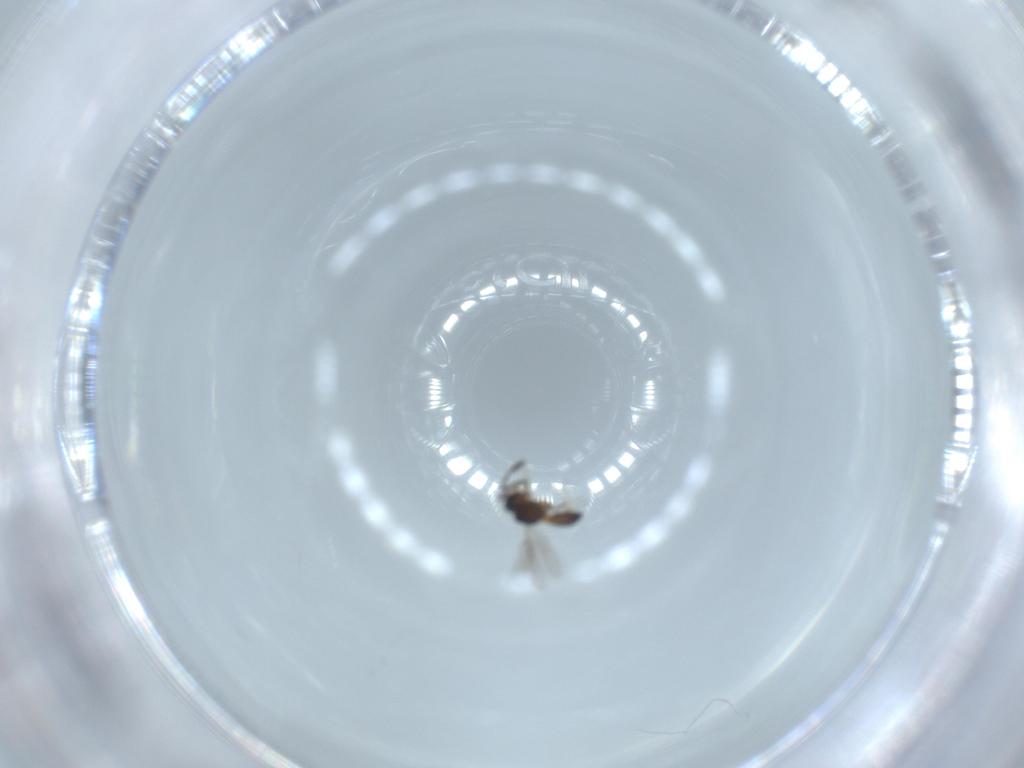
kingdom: Animalia
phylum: Arthropoda
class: Insecta
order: Hymenoptera
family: Scelionidae
